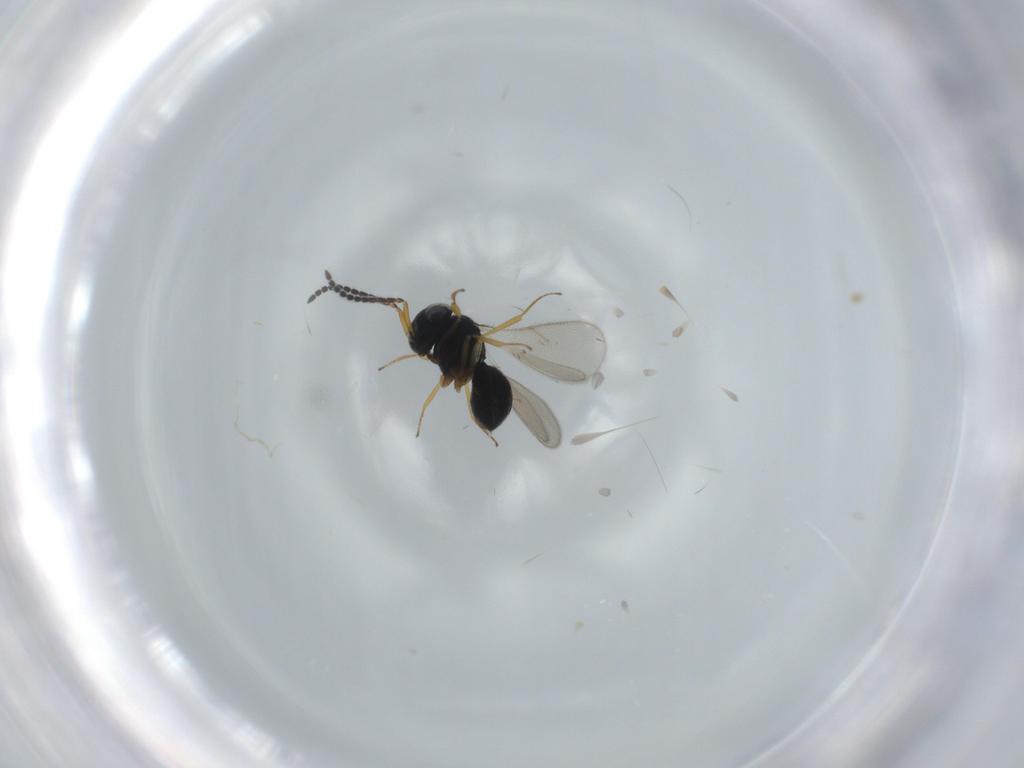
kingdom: Animalia
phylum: Arthropoda
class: Insecta
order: Hymenoptera
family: Scelionidae
